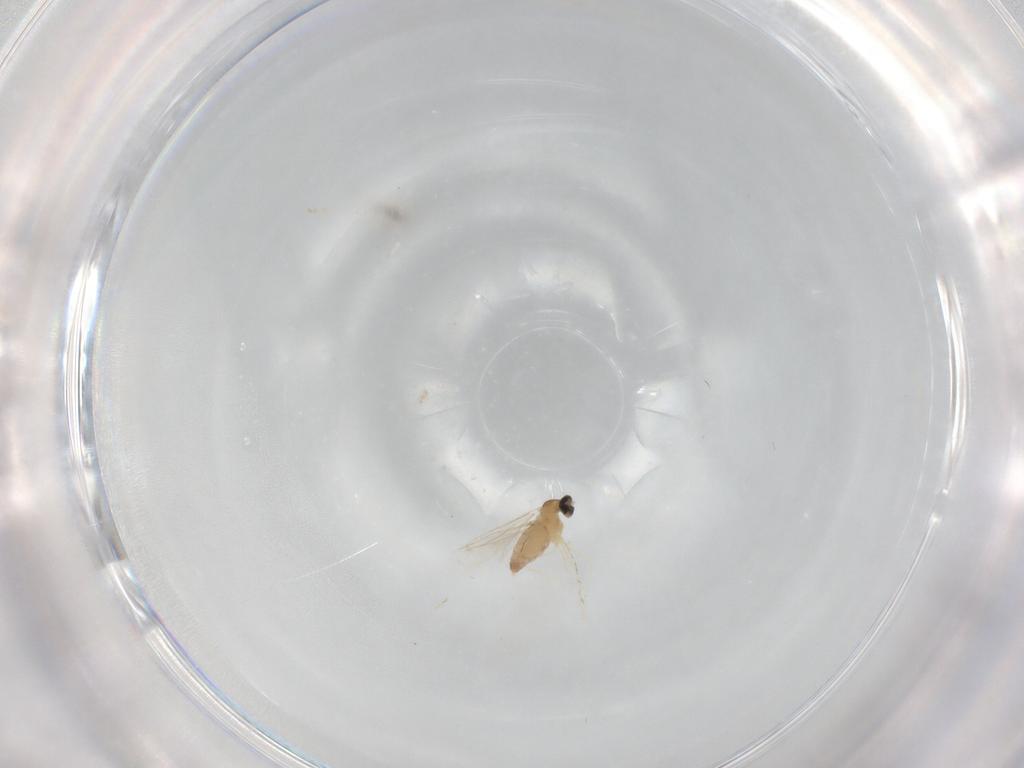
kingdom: Animalia
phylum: Arthropoda
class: Insecta
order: Diptera
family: Cecidomyiidae
